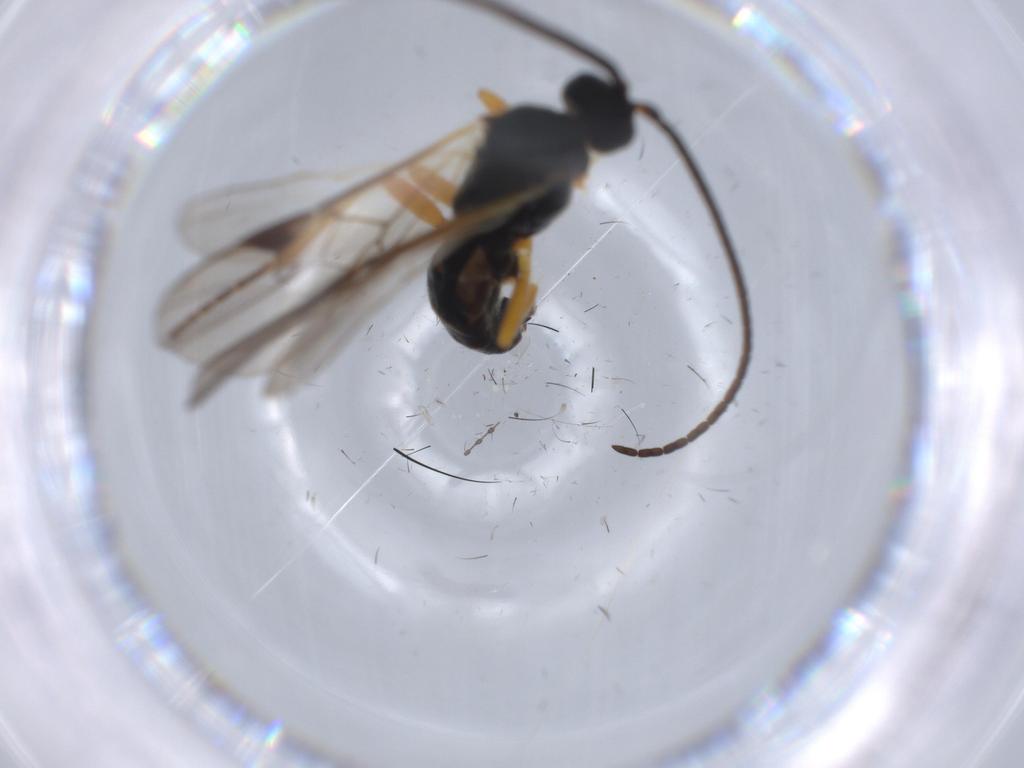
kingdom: Animalia
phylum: Arthropoda
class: Insecta
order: Hymenoptera
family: Braconidae
